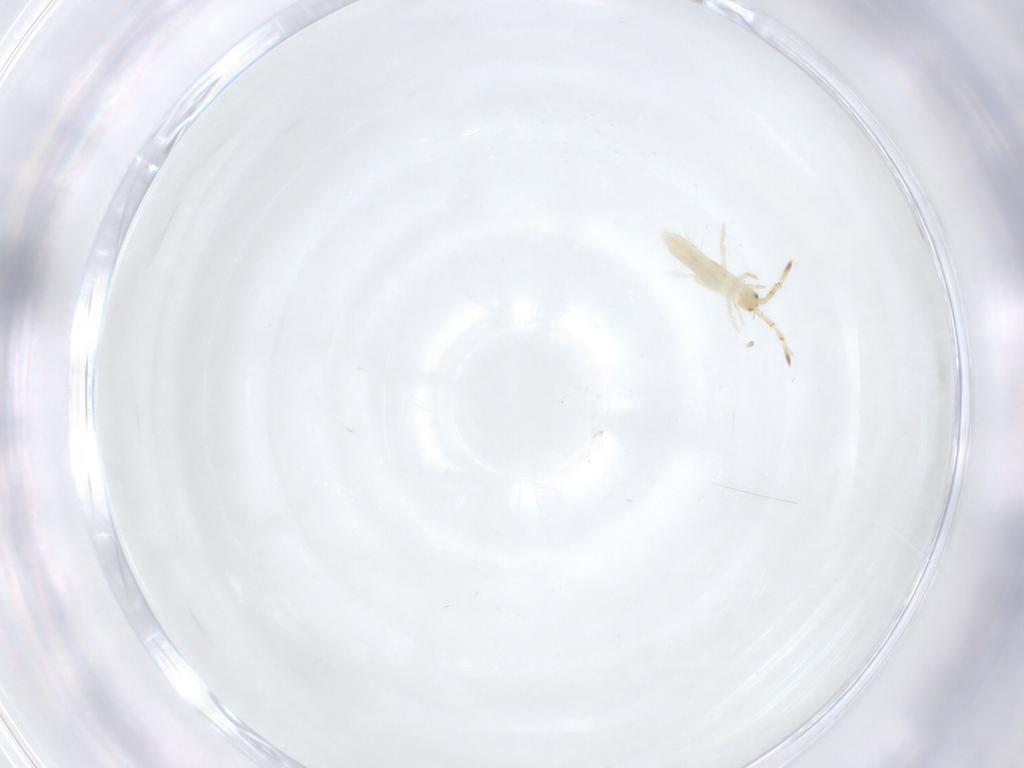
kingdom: Animalia
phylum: Arthropoda
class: Collembola
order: Entomobryomorpha
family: Entomobryidae
